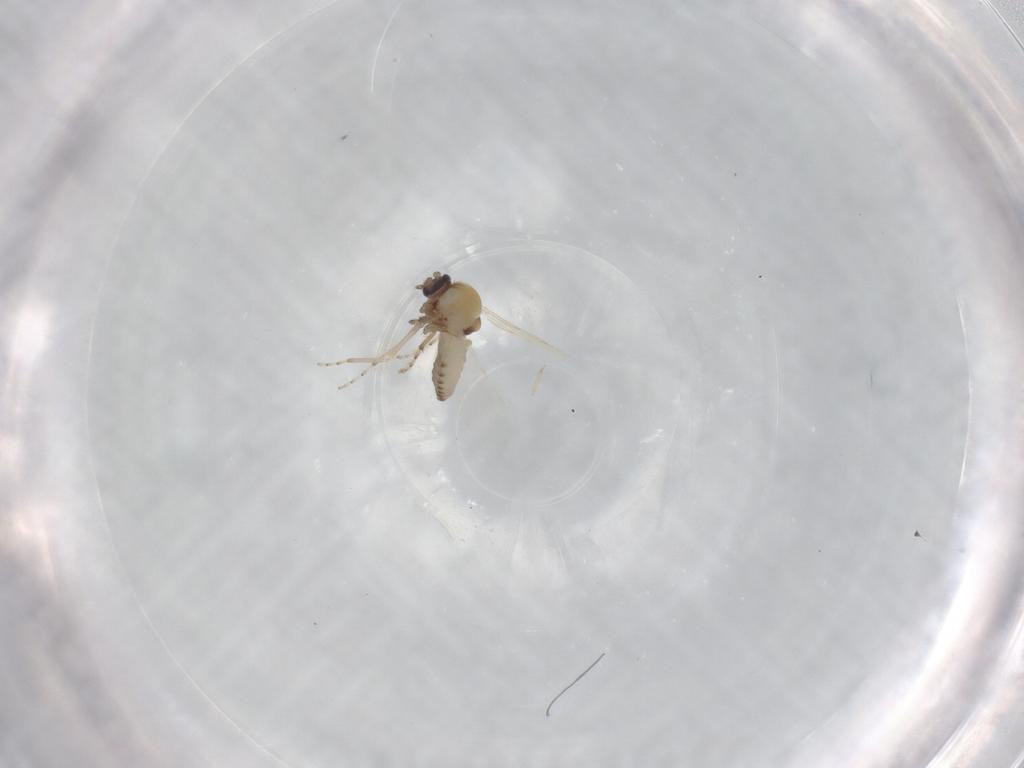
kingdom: Animalia
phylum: Arthropoda
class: Insecta
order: Diptera
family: Ceratopogonidae
